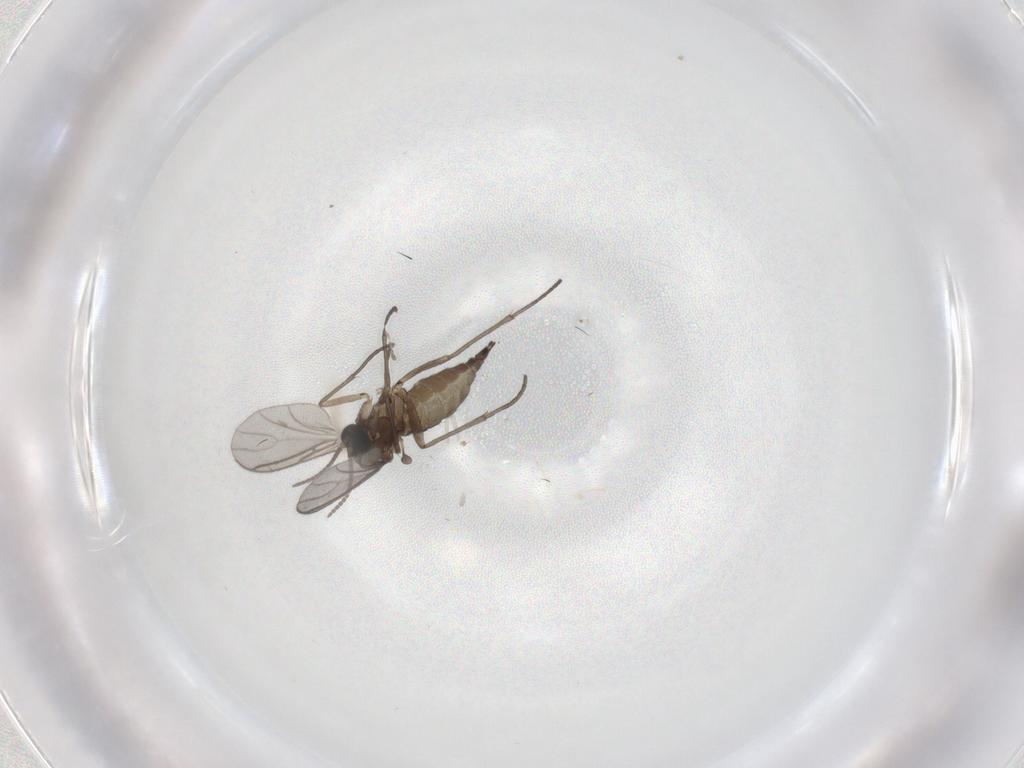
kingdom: Animalia
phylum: Arthropoda
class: Insecta
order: Diptera
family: Sciaridae
